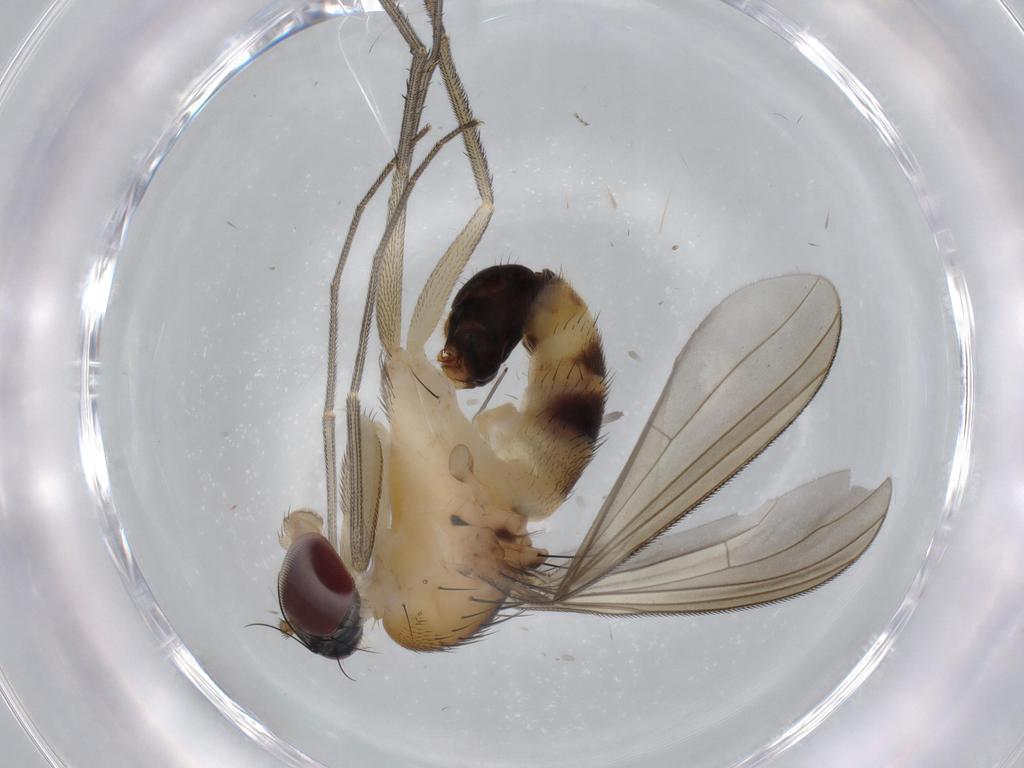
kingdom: Animalia
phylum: Arthropoda
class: Insecta
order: Diptera
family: Dolichopodidae
